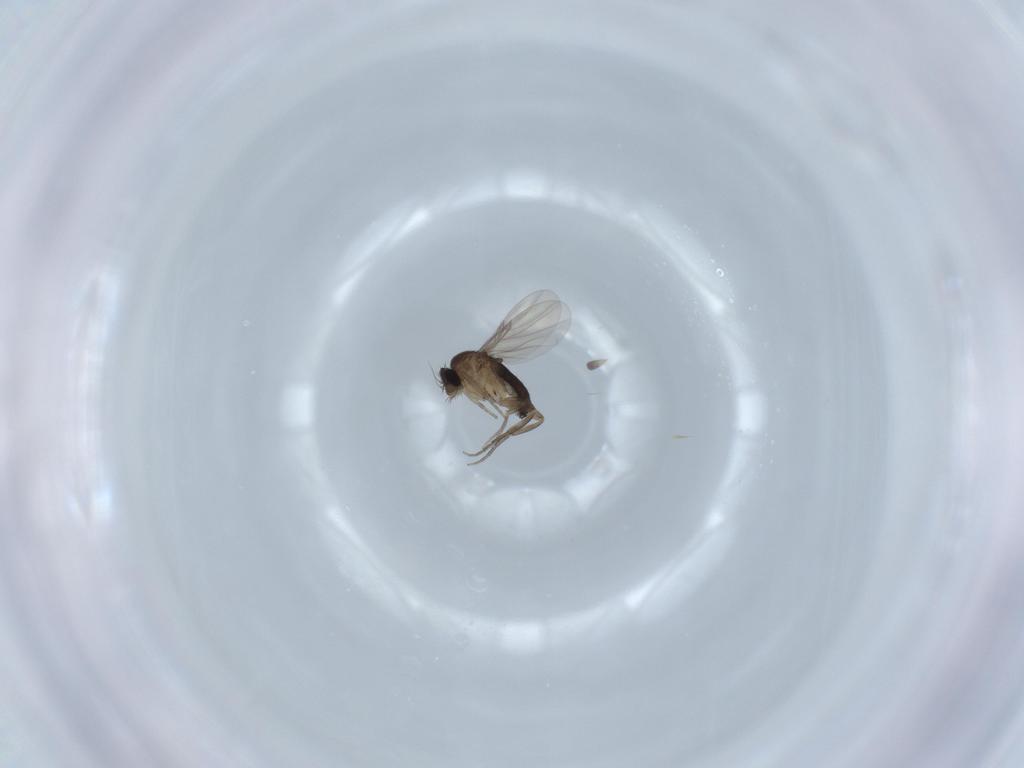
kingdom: Animalia
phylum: Arthropoda
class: Insecta
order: Diptera
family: Phoridae
